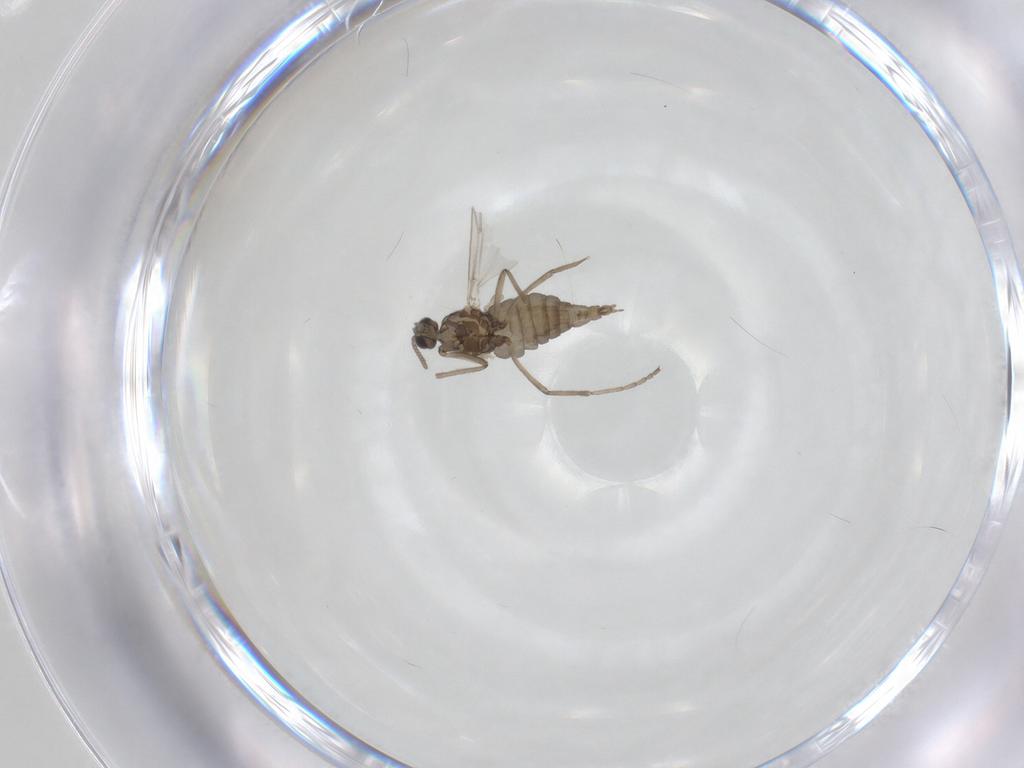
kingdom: Animalia
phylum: Arthropoda
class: Insecta
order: Diptera
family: Cecidomyiidae
